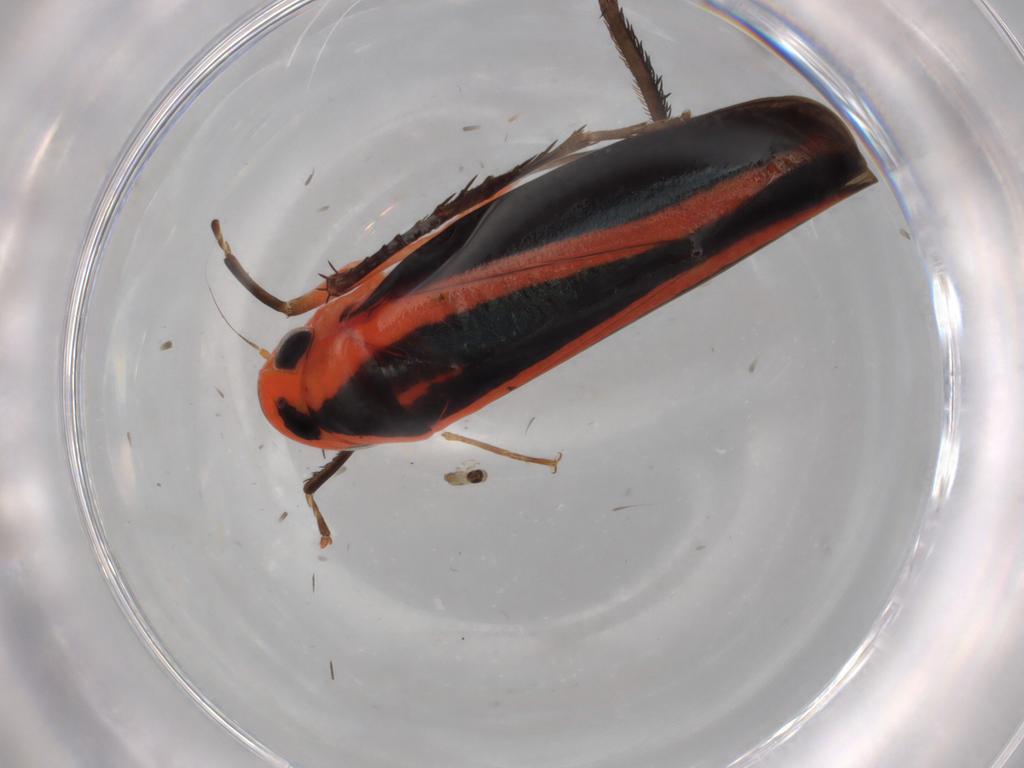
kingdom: Animalia
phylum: Arthropoda
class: Insecta
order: Hemiptera
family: Cydnidae
